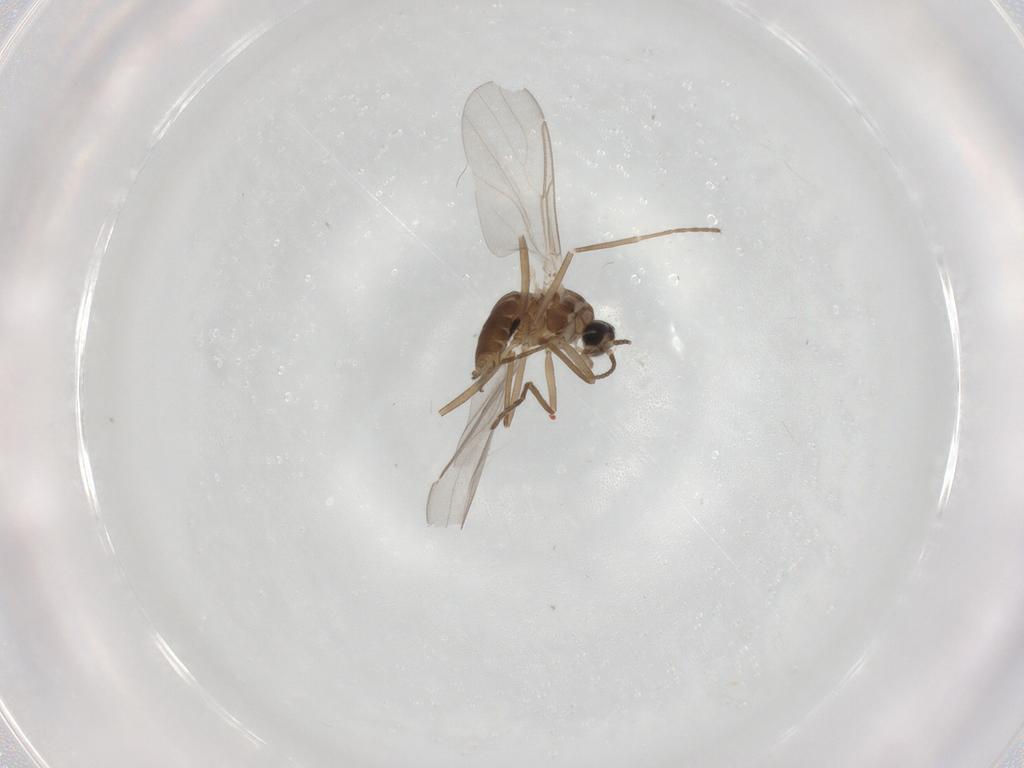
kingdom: Animalia
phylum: Arthropoda
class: Insecta
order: Diptera
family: Cecidomyiidae
